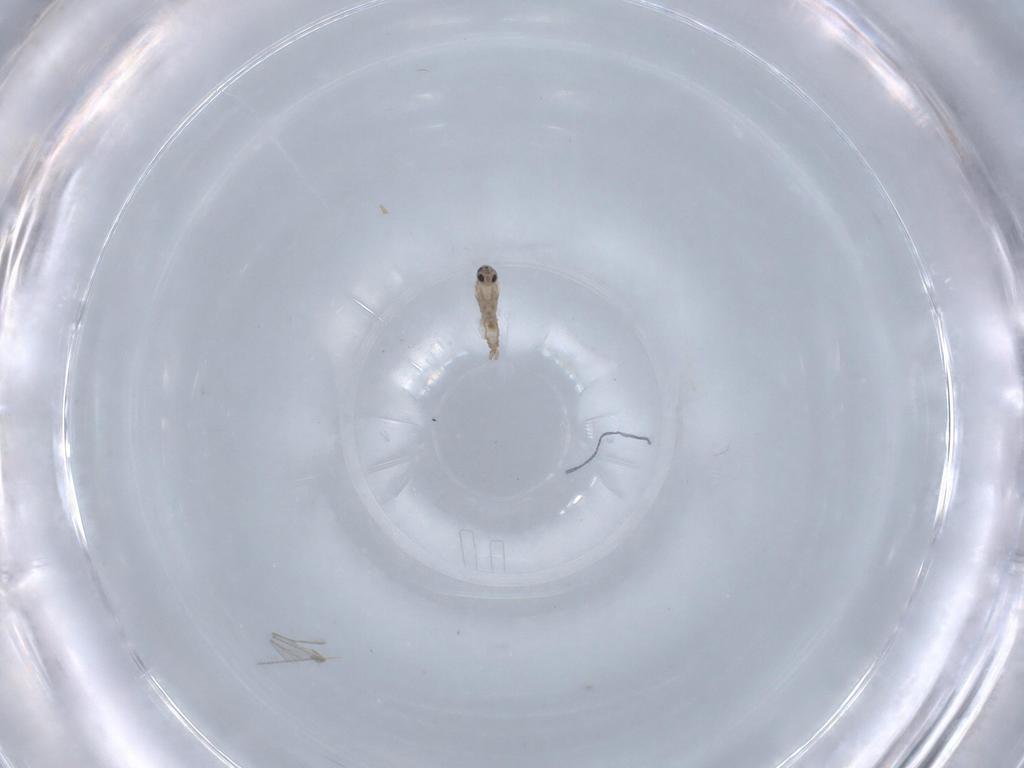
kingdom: Animalia
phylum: Arthropoda
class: Insecta
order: Diptera
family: Cecidomyiidae
